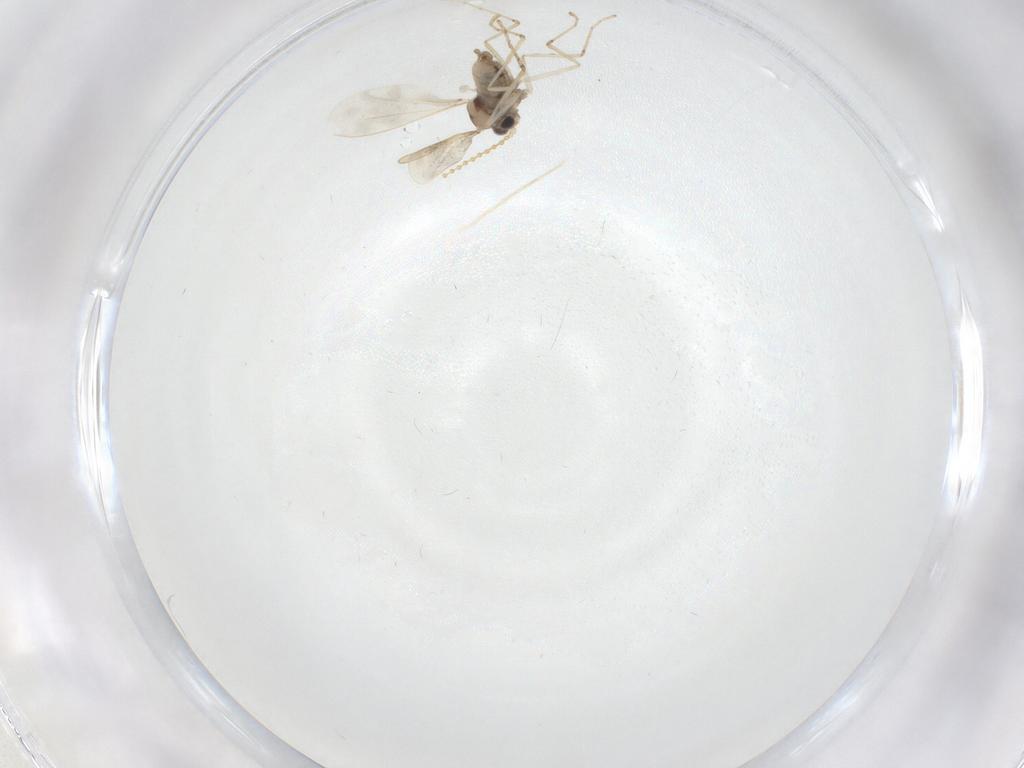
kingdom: Animalia
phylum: Arthropoda
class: Insecta
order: Diptera
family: Cecidomyiidae
